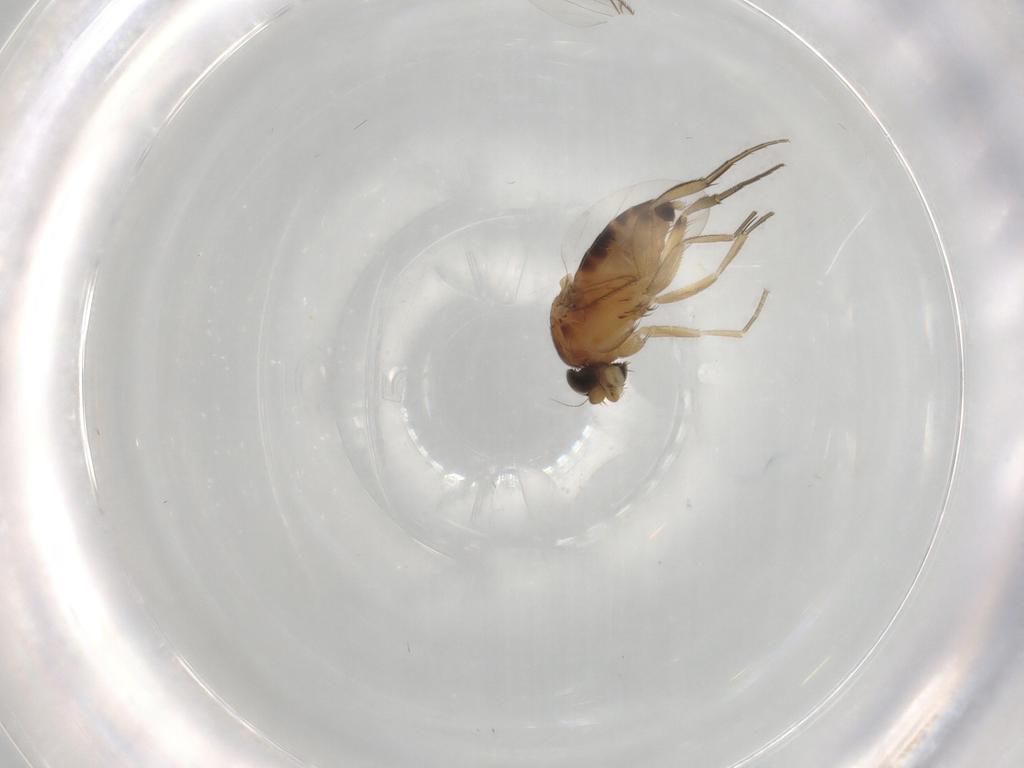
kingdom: Animalia
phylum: Arthropoda
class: Insecta
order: Diptera
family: Phoridae
